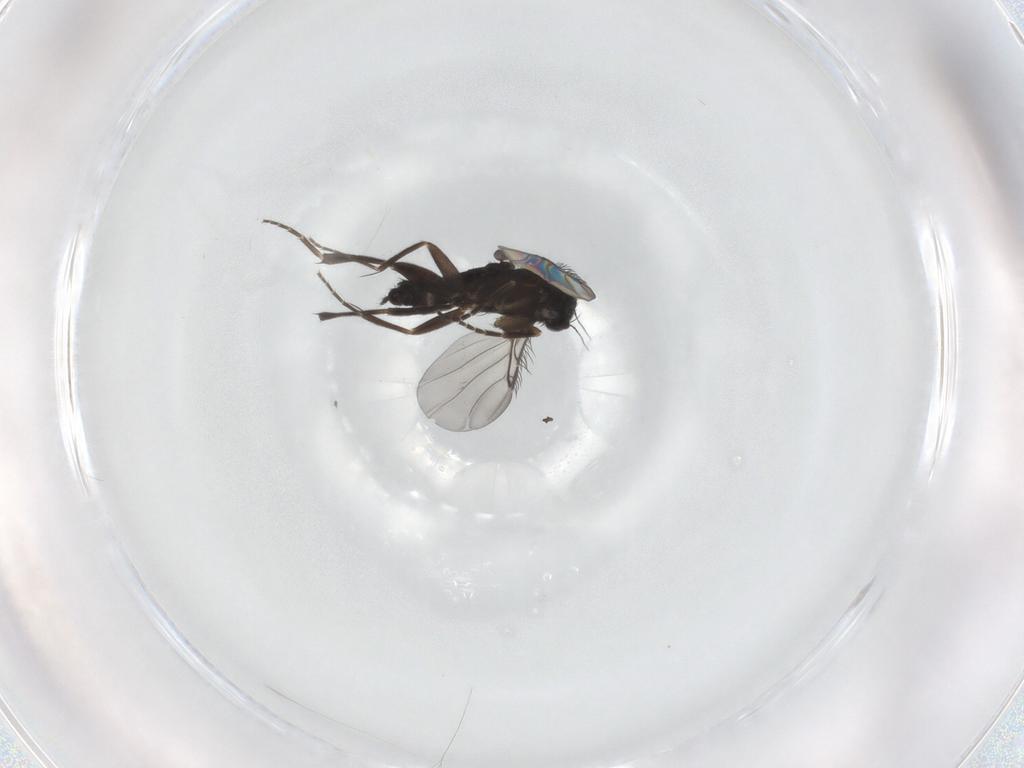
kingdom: Animalia
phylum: Arthropoda
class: Insecta
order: Diptera
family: Phoridae
